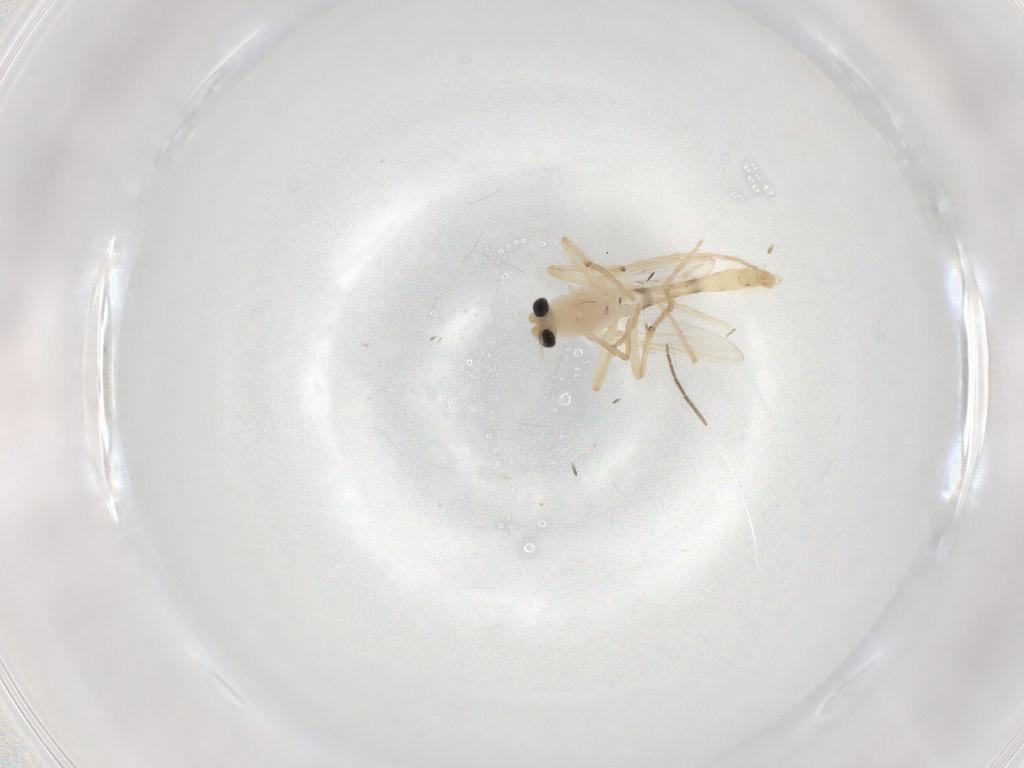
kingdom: Animalia
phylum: Arthropoda
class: Insecta
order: Diptera
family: Chironomidae
